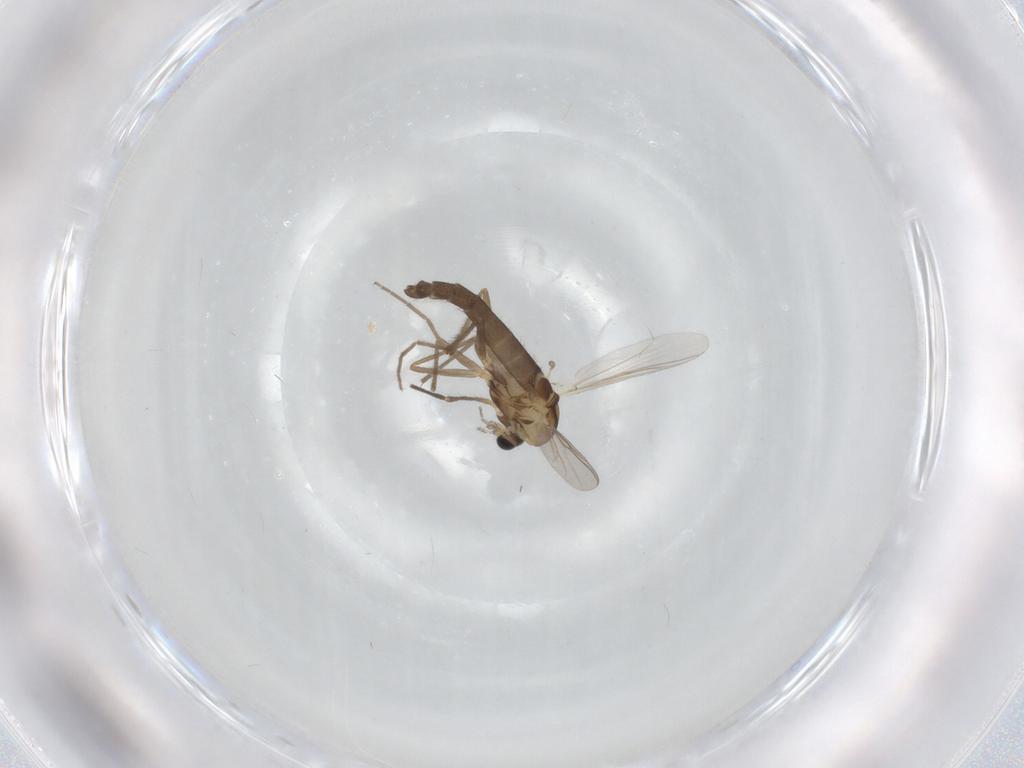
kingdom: Animalia
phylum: Arthropoda
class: Insecta
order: Diptera
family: Chironomidae
